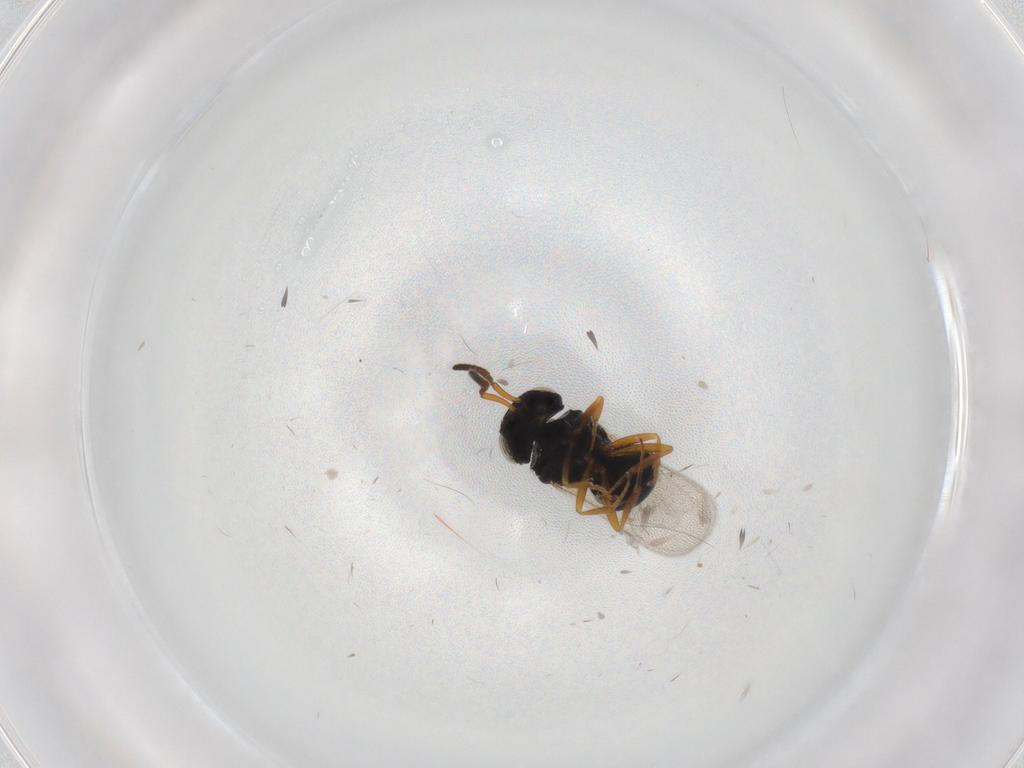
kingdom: Animalia
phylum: Arthropoda
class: Insecta
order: Hymenoptera
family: Scelionidae
